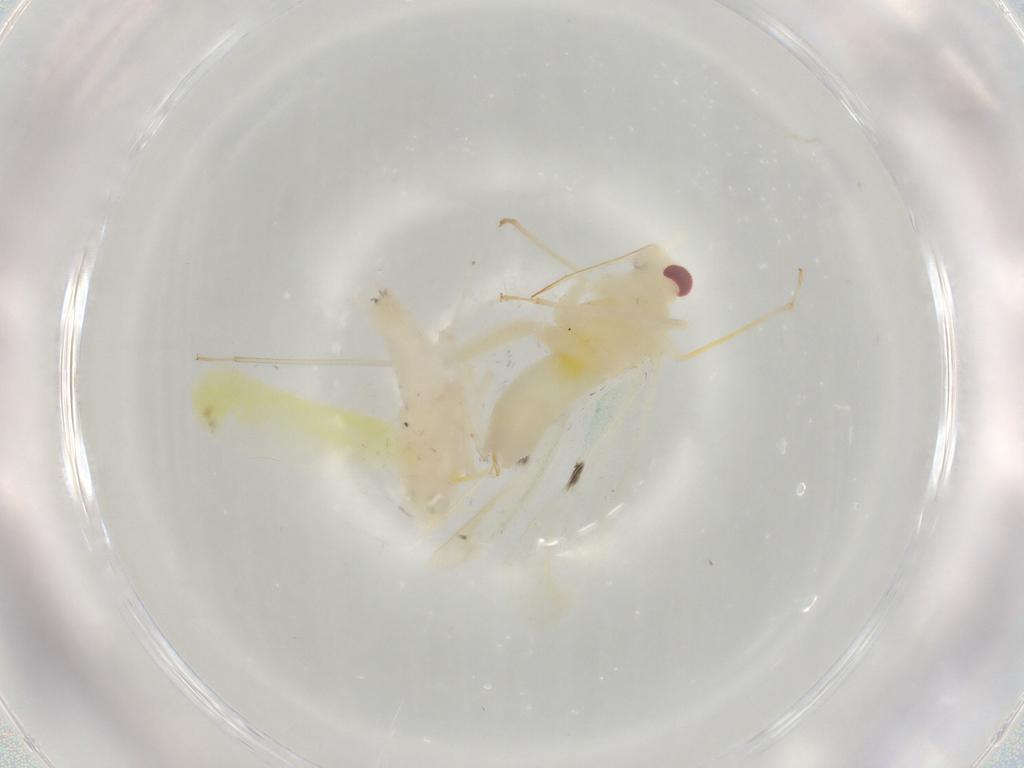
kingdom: Animalia
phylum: Arthropoda
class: Insecta
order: Hemiptera
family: Cicadellidae
